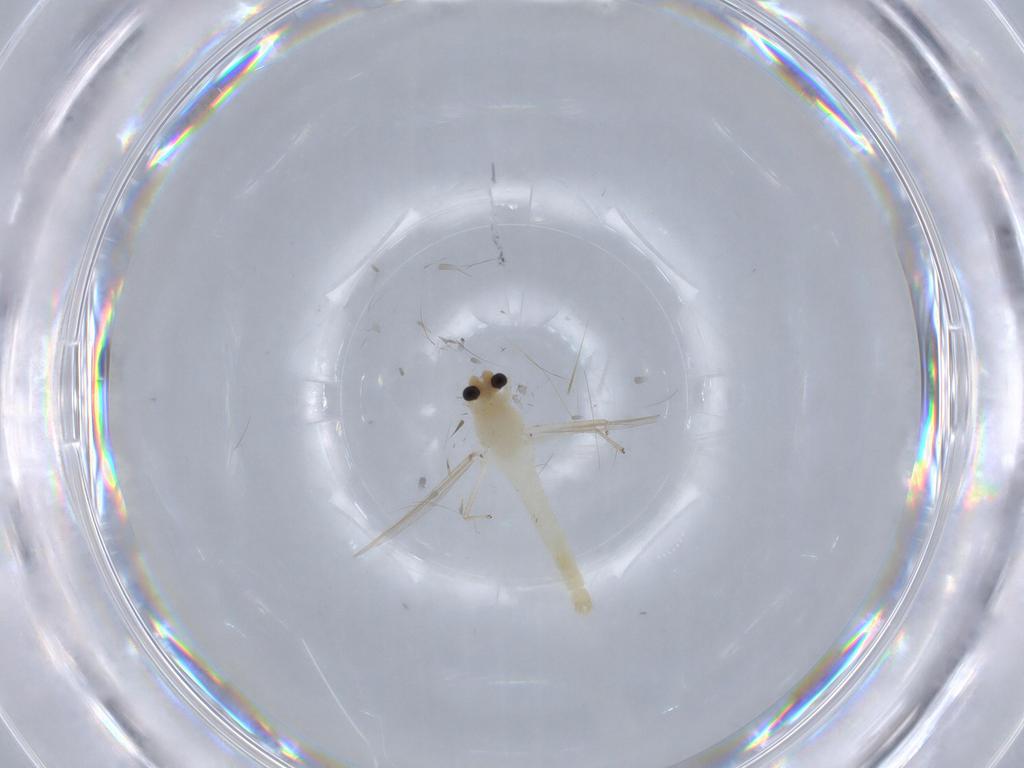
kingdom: Animalia
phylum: Arthropoda
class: Insecta
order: Diptera
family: Chironomidae
